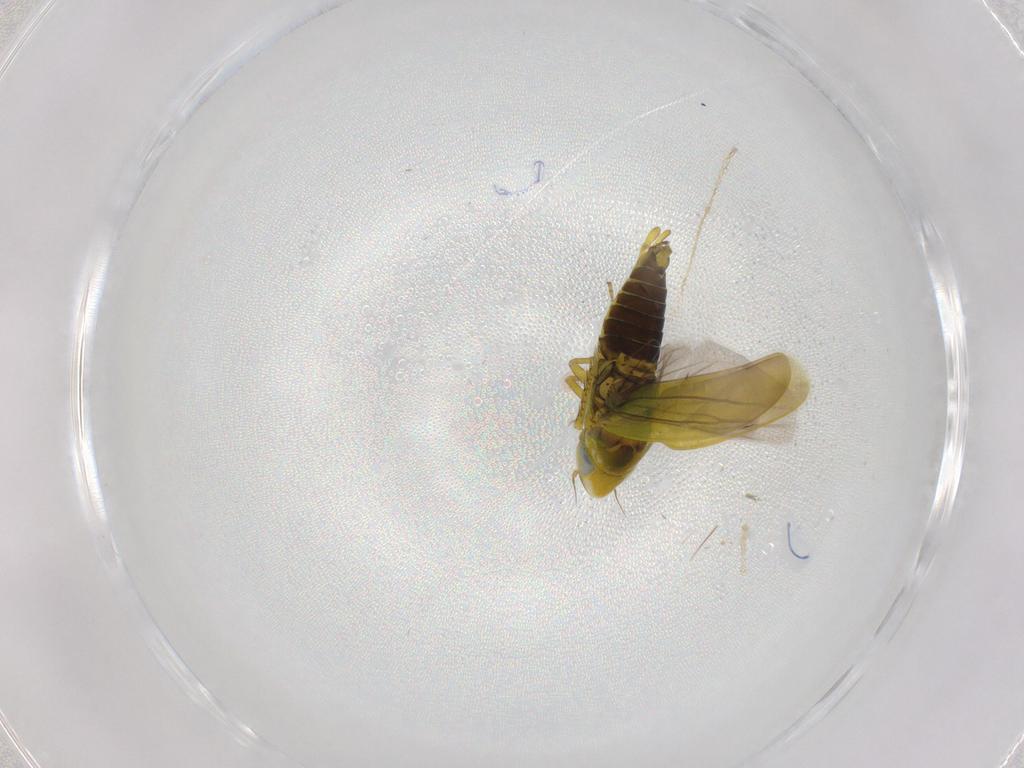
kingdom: Animalia
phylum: Arthropoda
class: Insecta
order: Hemiptera
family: Cicadellidae
